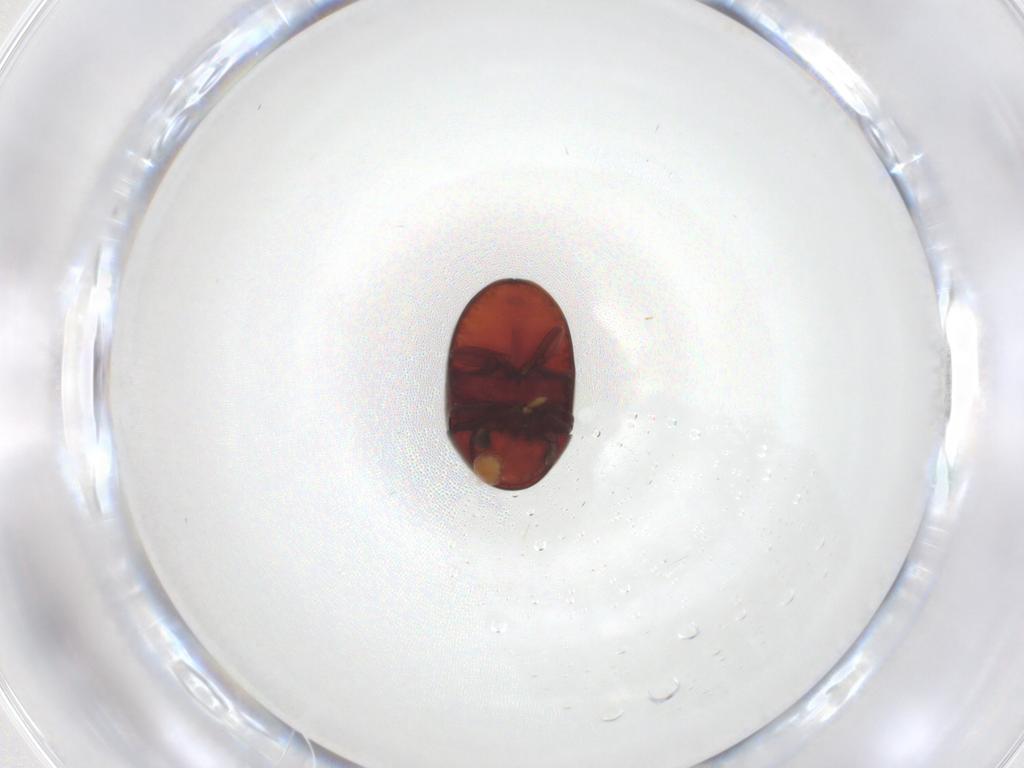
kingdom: Animalia
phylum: Arthropoda
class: Insecta
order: Coleoptera
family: Ptinidae
